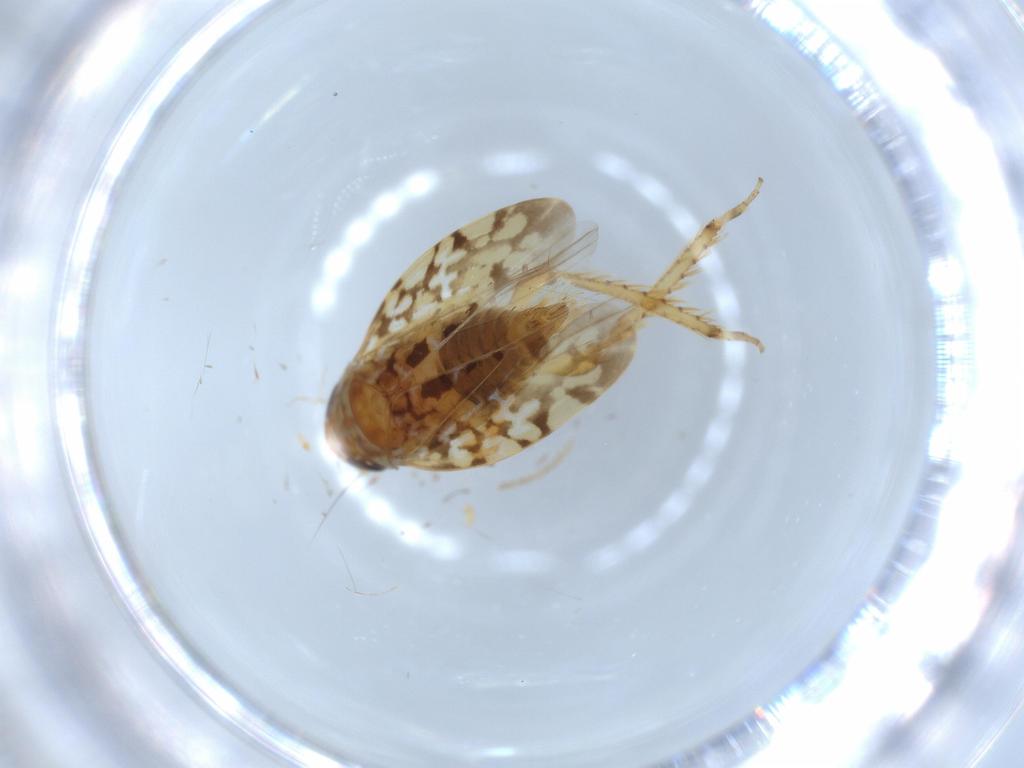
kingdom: Animalia
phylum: Arthropoda
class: Insecta
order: Hemiptera
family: Cicadellidae
